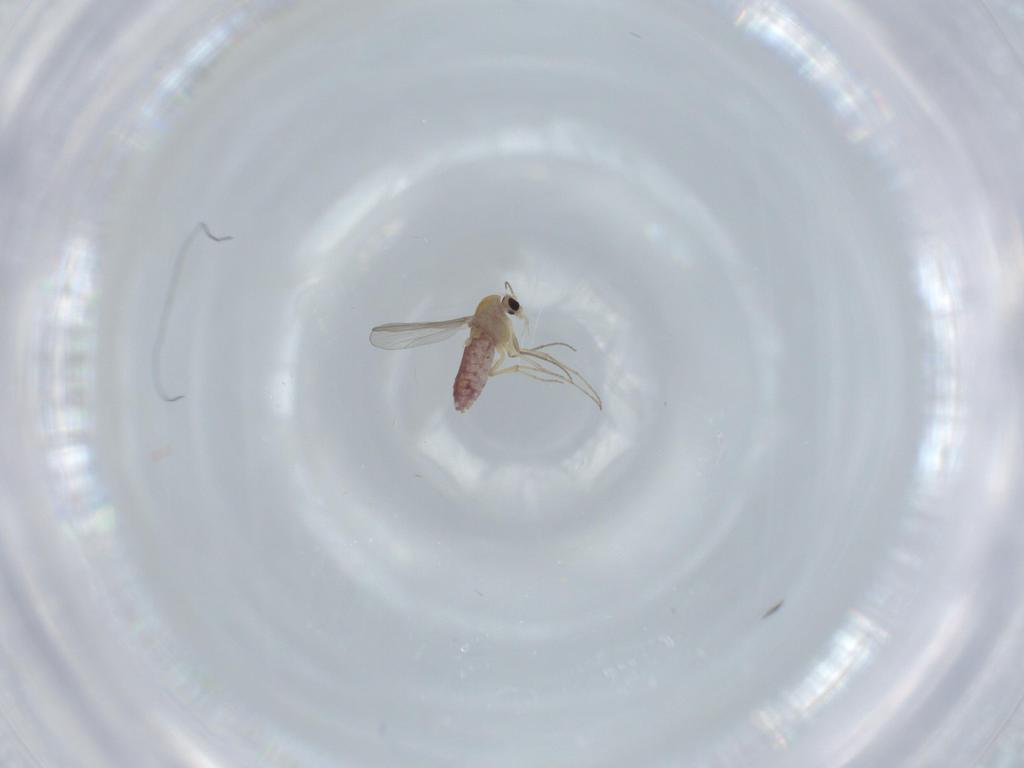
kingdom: Animalia
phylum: Arthropoda
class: Insecta
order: Diptera
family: Chironomidae
